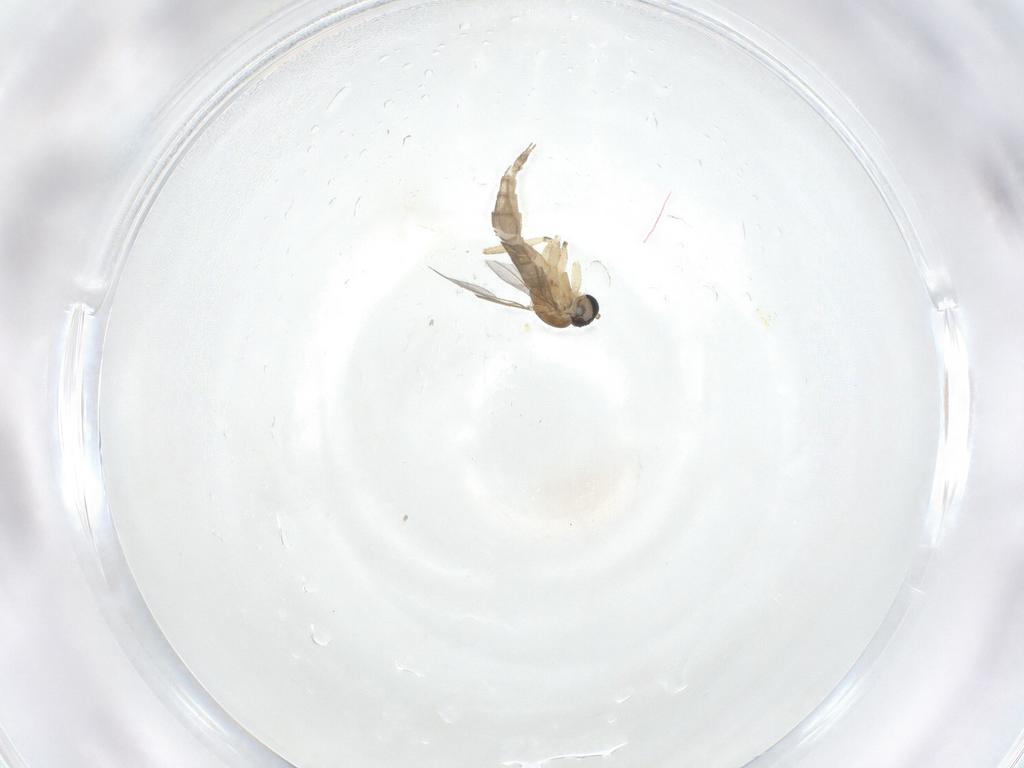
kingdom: Animalia
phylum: Arthropoda
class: Insecta
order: Diptera
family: Sciaridae
